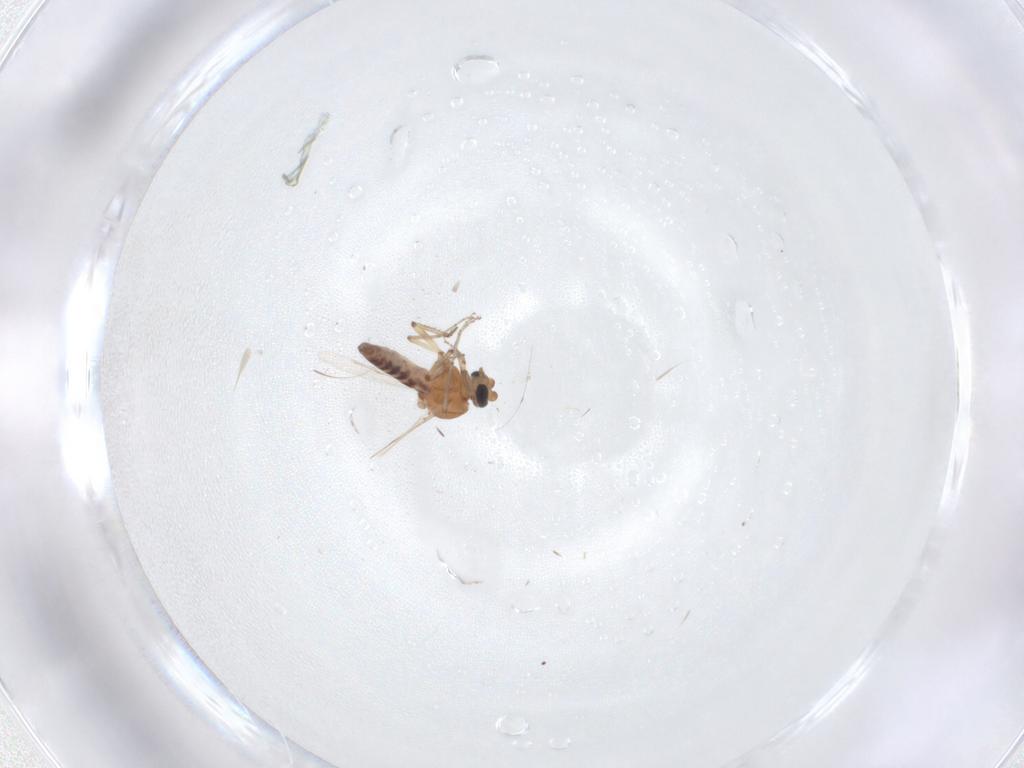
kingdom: Animalia
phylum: Arthropoda
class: Insecta
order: Diptera
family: Ceratopogonidae
